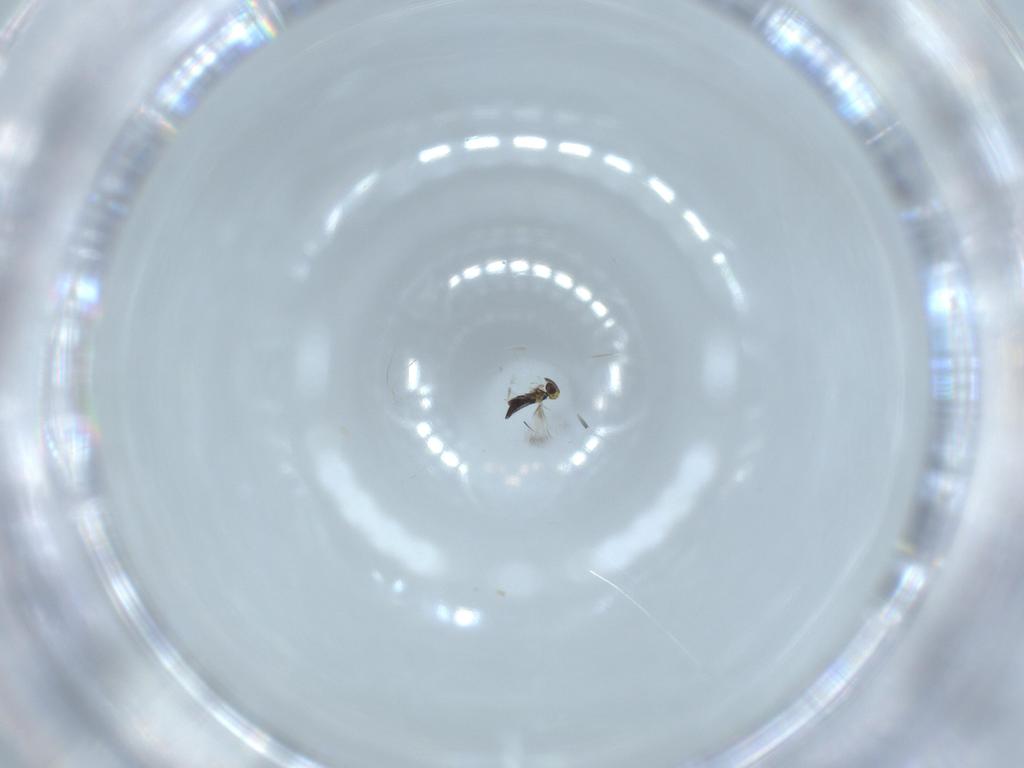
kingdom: Animalia
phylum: Arthropoda
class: Insecta
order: Hymenoptera
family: Signiphoridae
